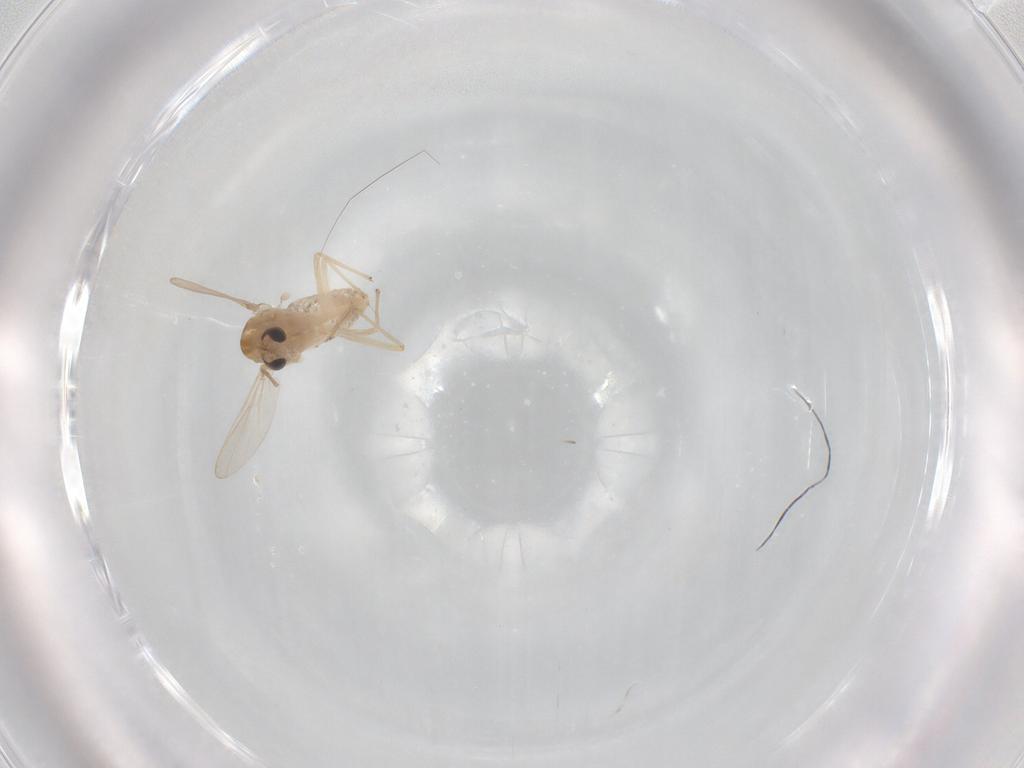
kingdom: Animalia
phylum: Arthropoda
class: Insecta
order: Diptera
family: Chironomidae
